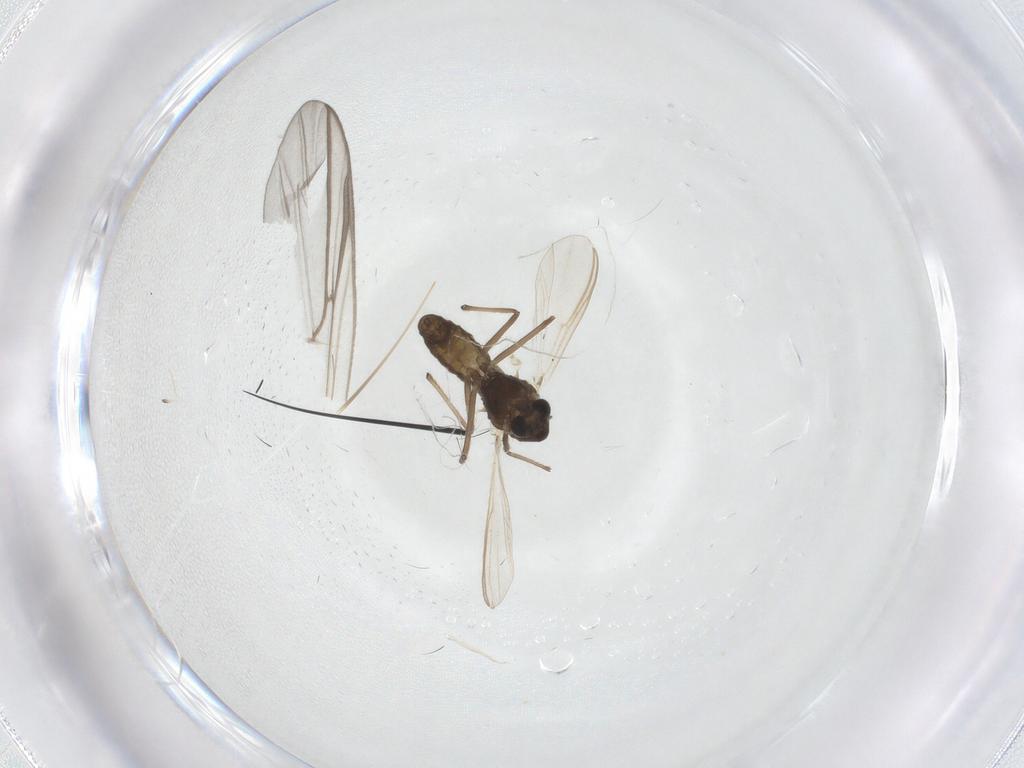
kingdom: Animalia
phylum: Arthropoda
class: Insecta
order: Diptera
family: Chironomidae
